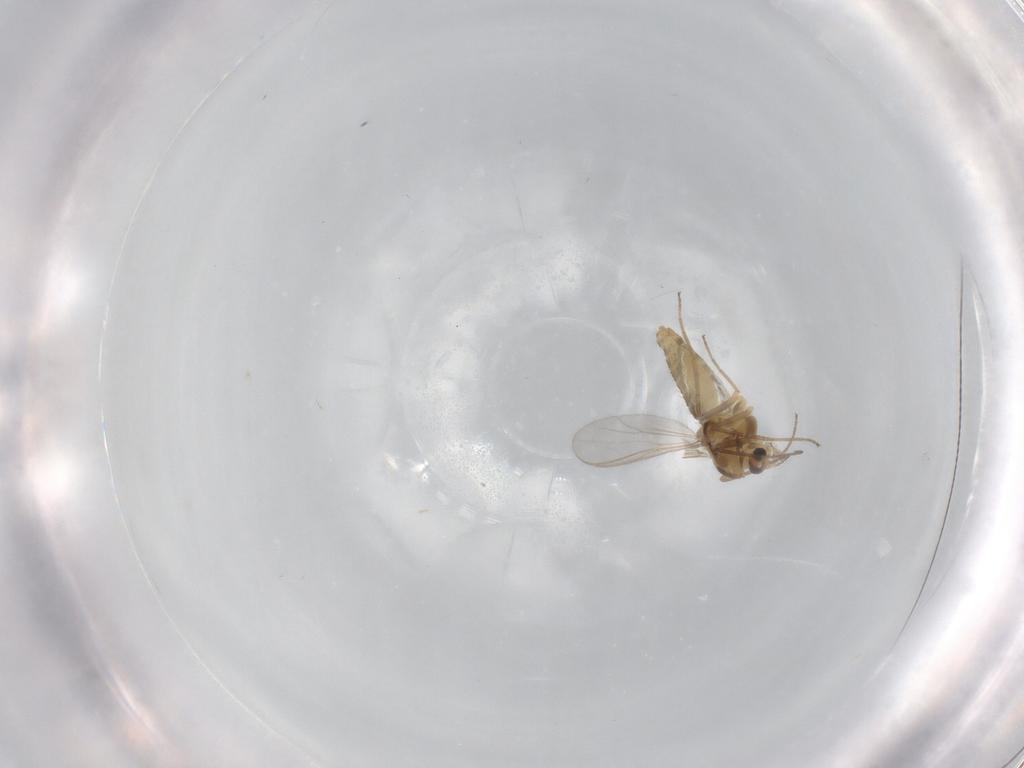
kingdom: Animalia
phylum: Arthropoda
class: Insecta
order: Diptera
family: Chironomidae
